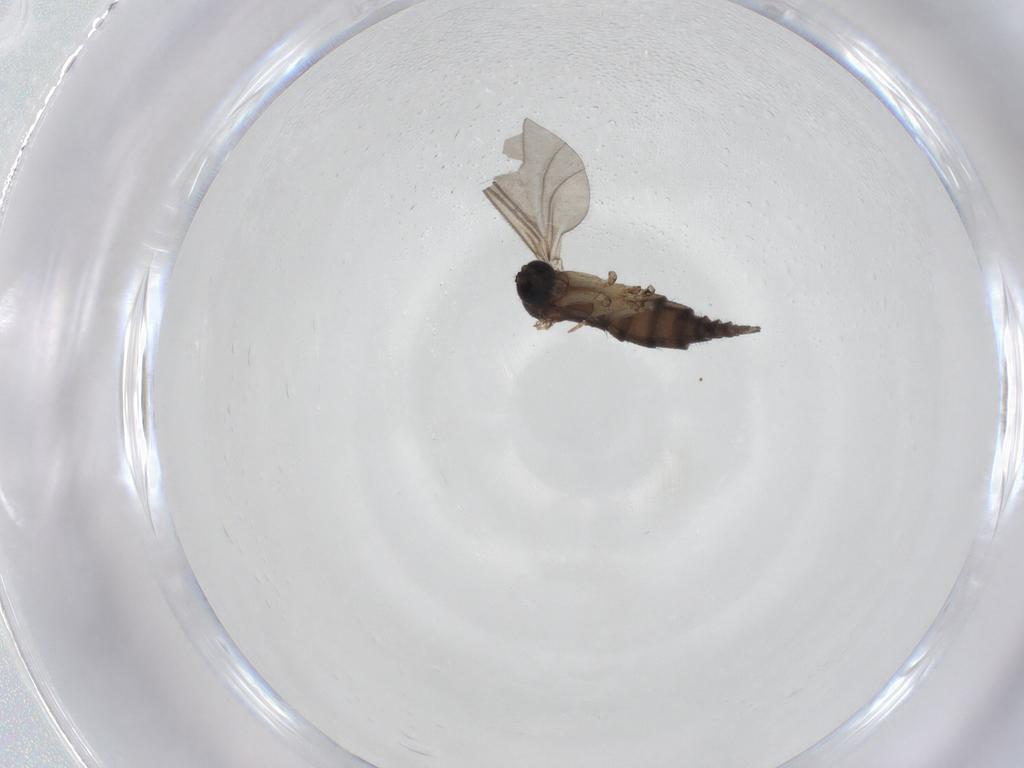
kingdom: Animalia
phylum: Arthropoda
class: Insecta
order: Diptera
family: Sciaridae
